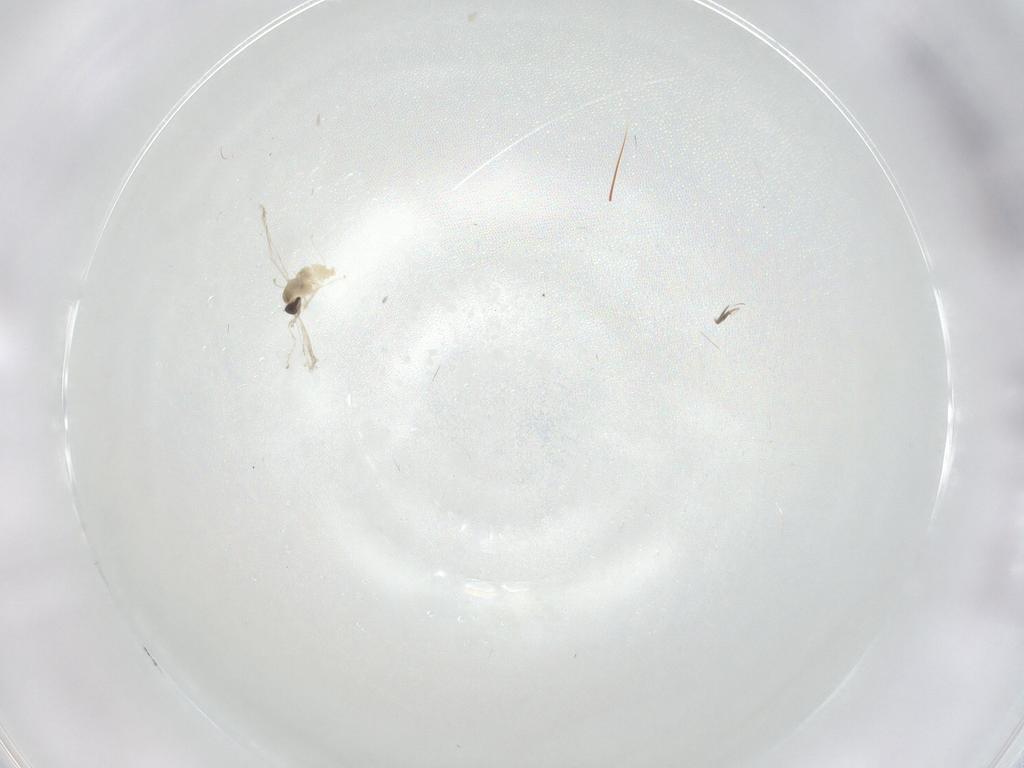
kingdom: Animalia
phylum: Arthropoda
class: Insecta
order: Diptera
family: Cecidomyiidae
